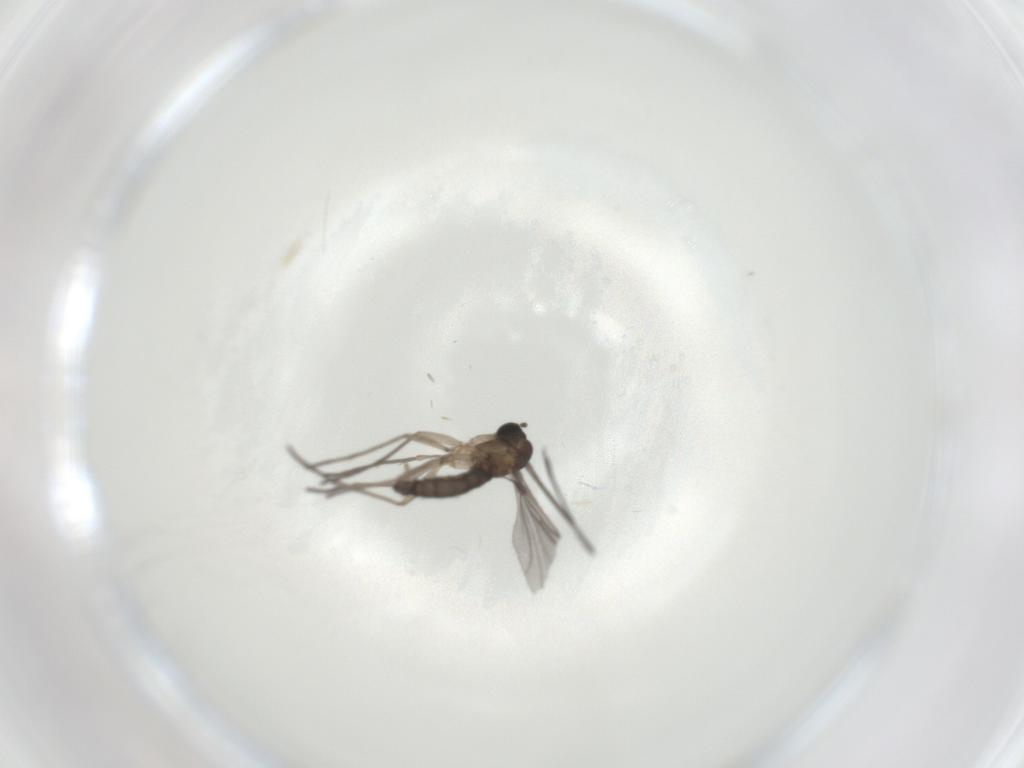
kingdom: Animalia
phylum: Arthropoda
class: Insecta
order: Diptera
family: Sciaridae
